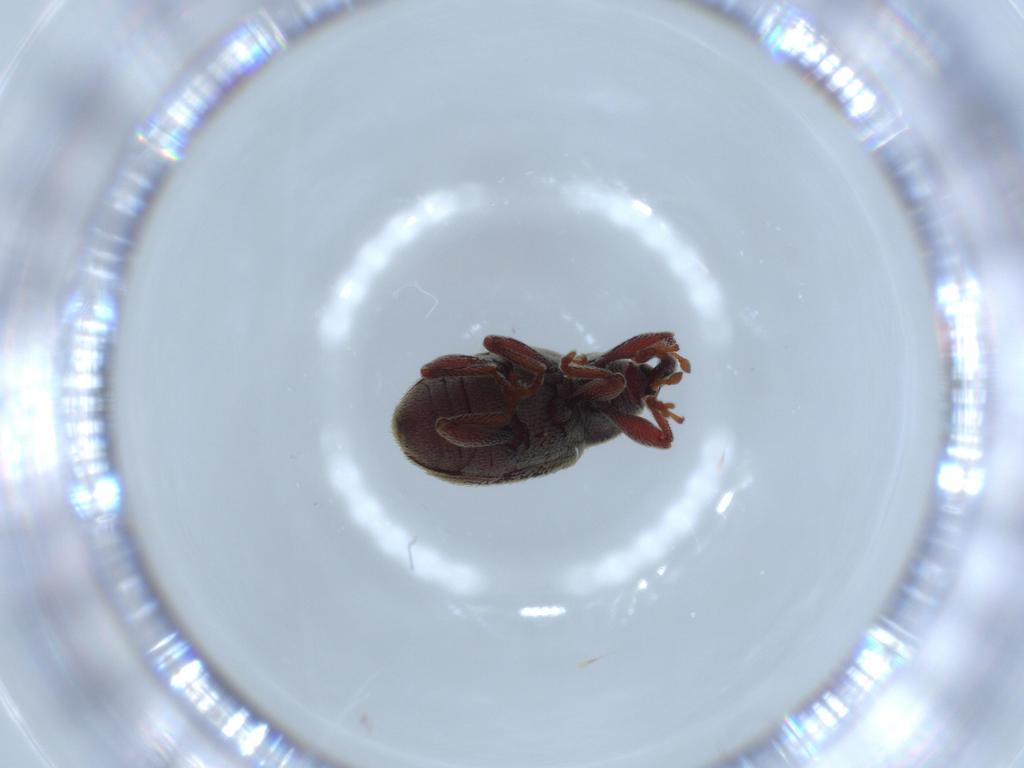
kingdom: Animalia
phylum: Arthropoda
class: Insecta
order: Coleoptera
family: Curculionidae
